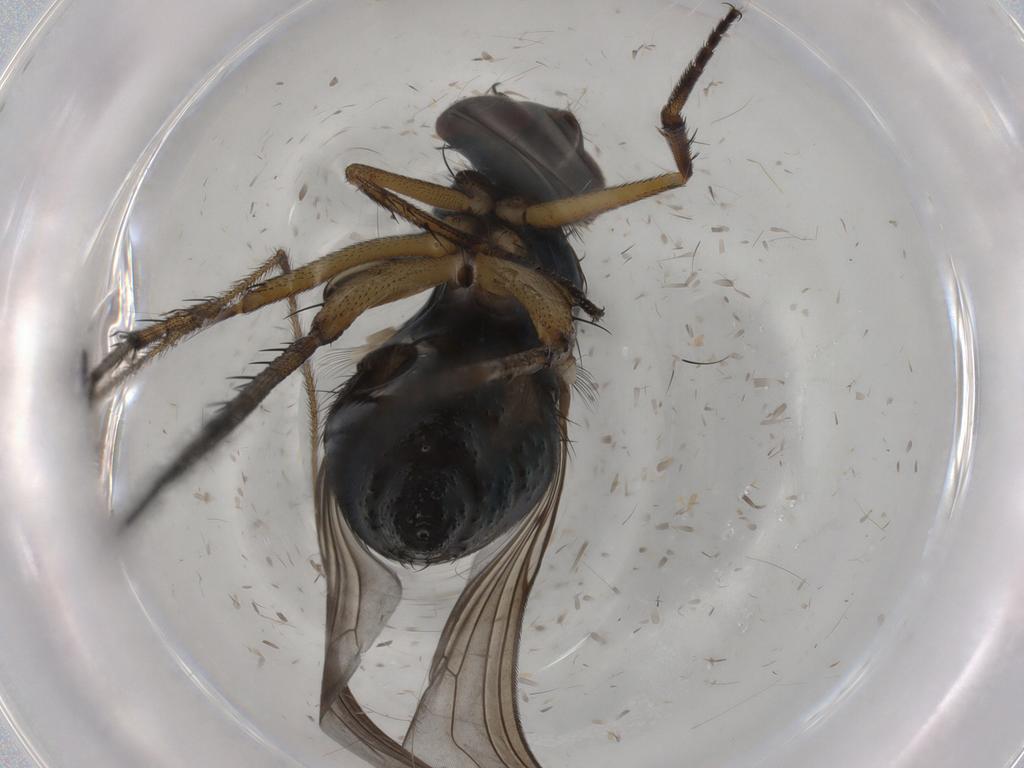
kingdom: Animalia
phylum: Arthropoda
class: Insecta
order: Diptera
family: Dolichopodidae
